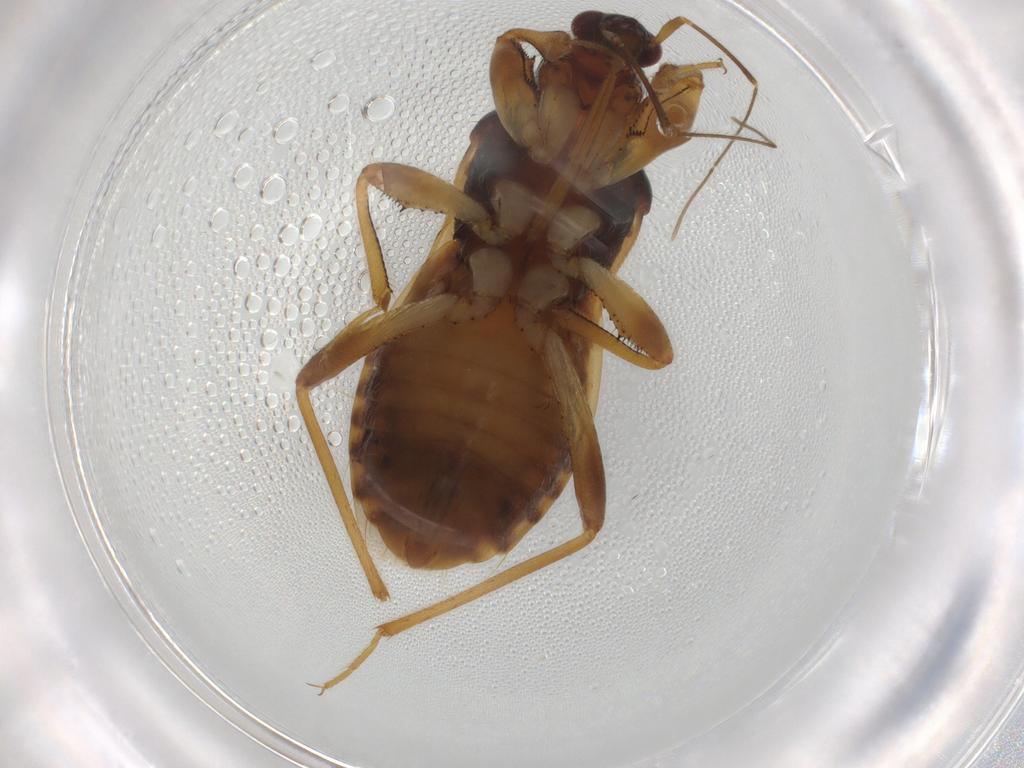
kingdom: Animalia
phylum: Arthropoda
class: Insecta
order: Hemiptera
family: Nabidae
